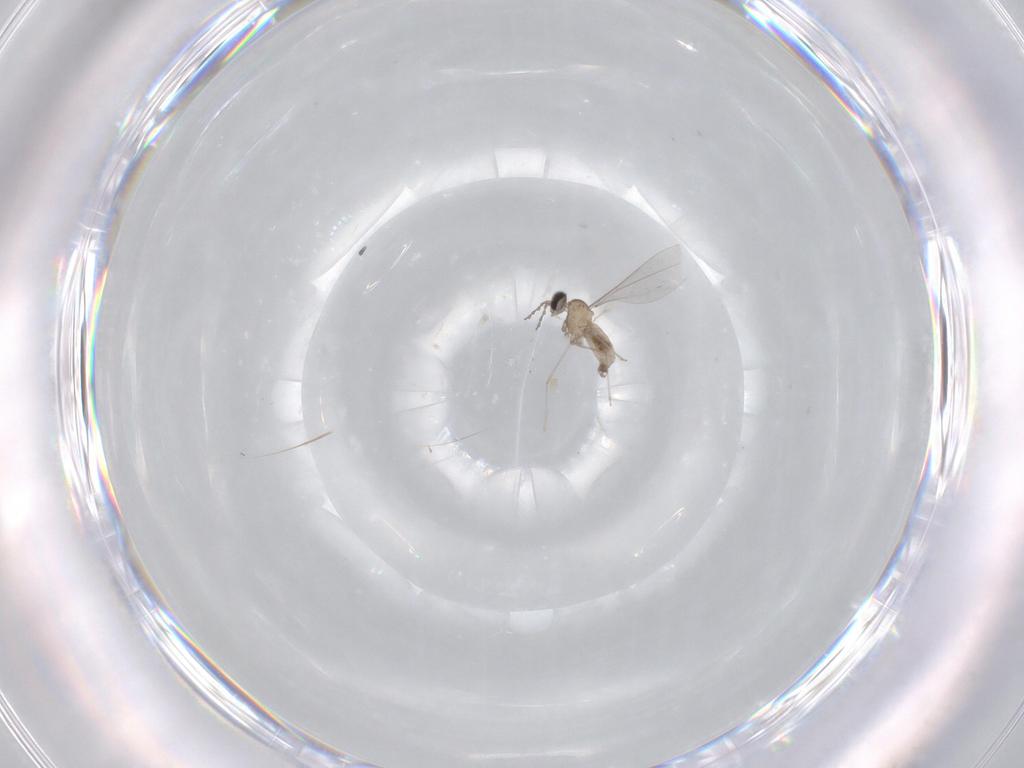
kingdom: Animalia
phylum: Arthropoda
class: Insecta
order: Diptera
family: Cecidomyiidae
